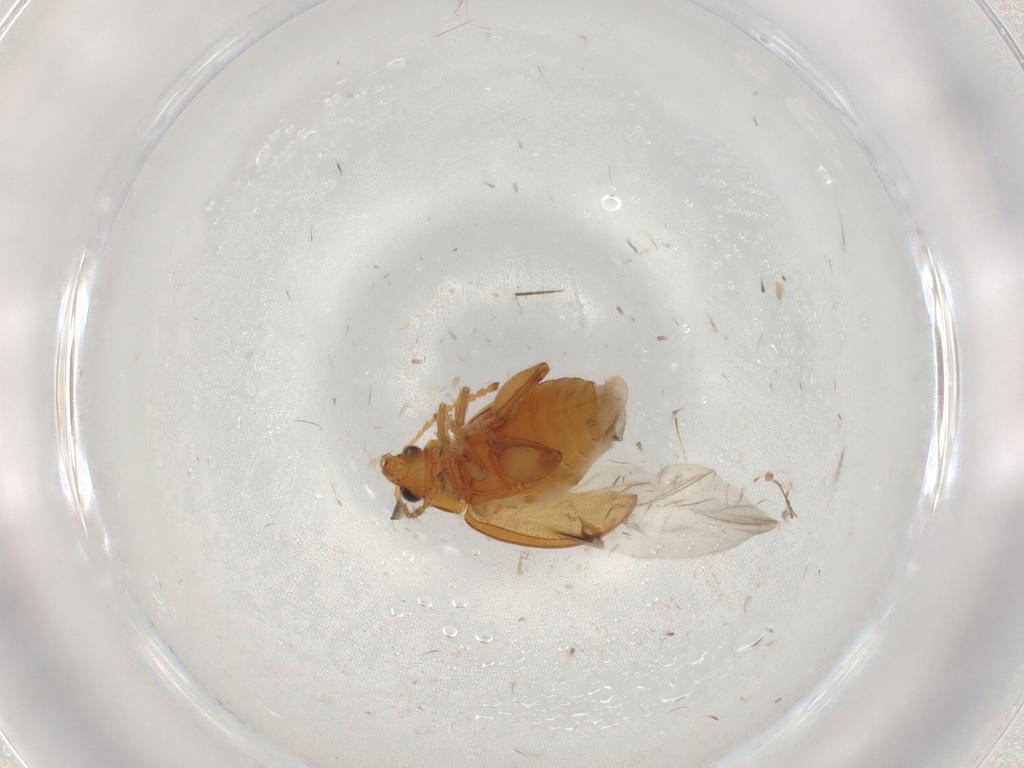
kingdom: Animalia
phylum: Arthropoda
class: Insecta
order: Coleoptera
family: Chrysomelidae
